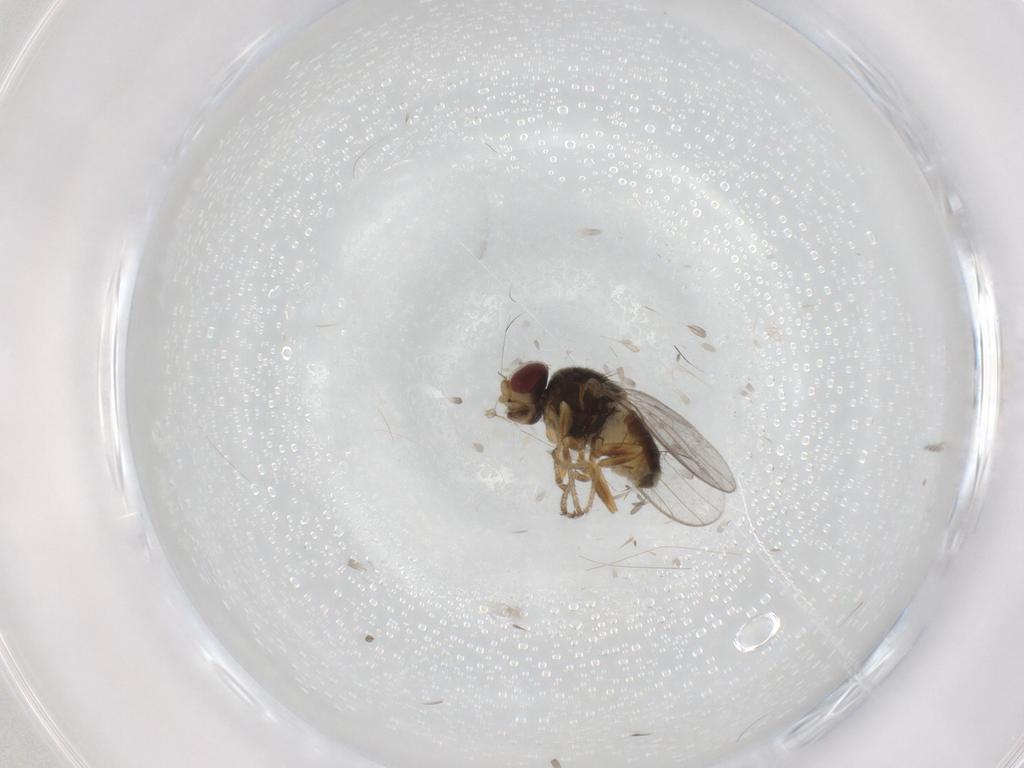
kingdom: Animalia
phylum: Arthropoda
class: Insecta
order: Diptera
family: Chloropidae
